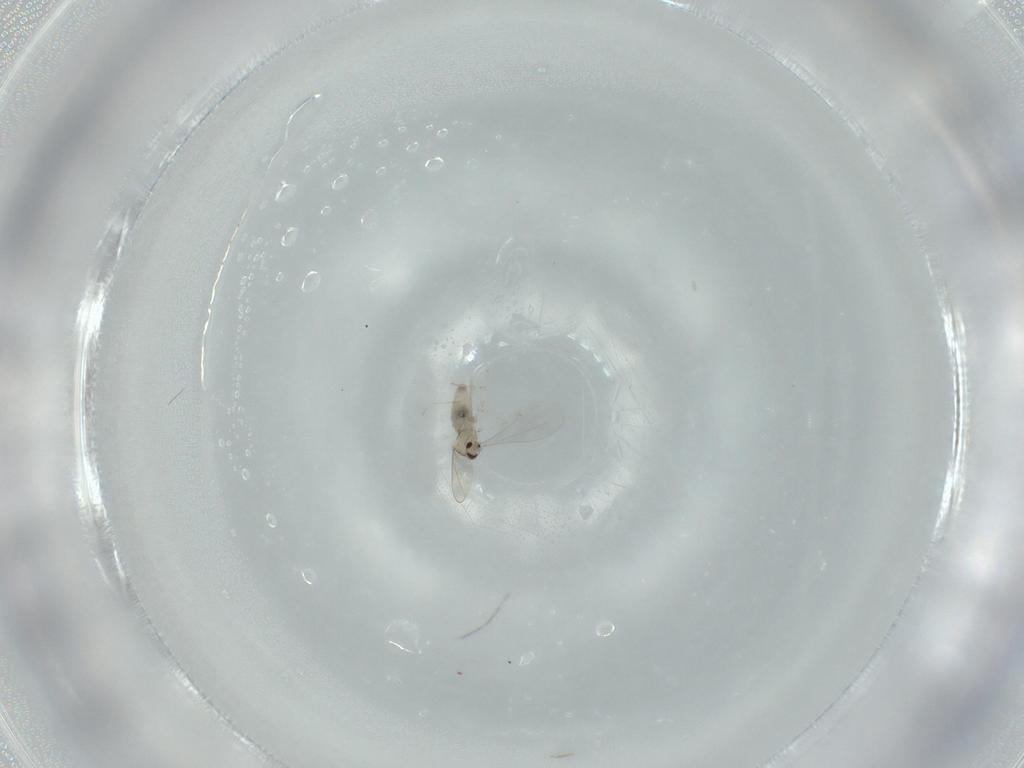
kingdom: Animalia
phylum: Arthropoda
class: Insecta
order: Diptera
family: Cecidomyiidae
